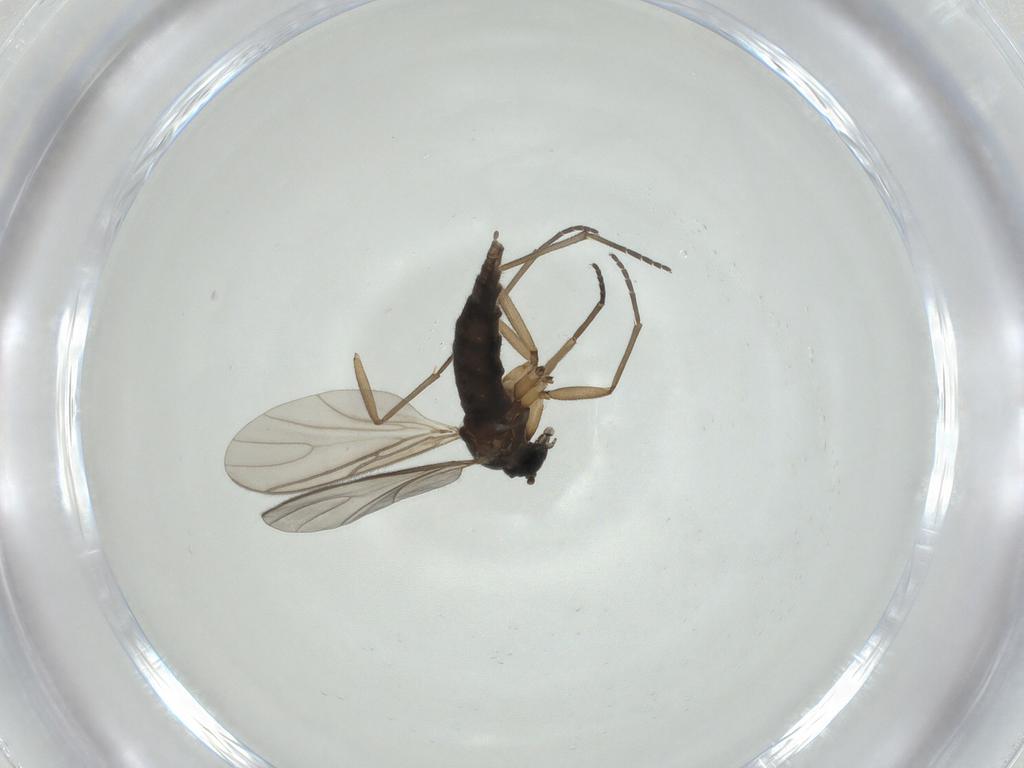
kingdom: Animalia
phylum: Arthropoda
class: Insecta
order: Diptera
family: Sciaridae
